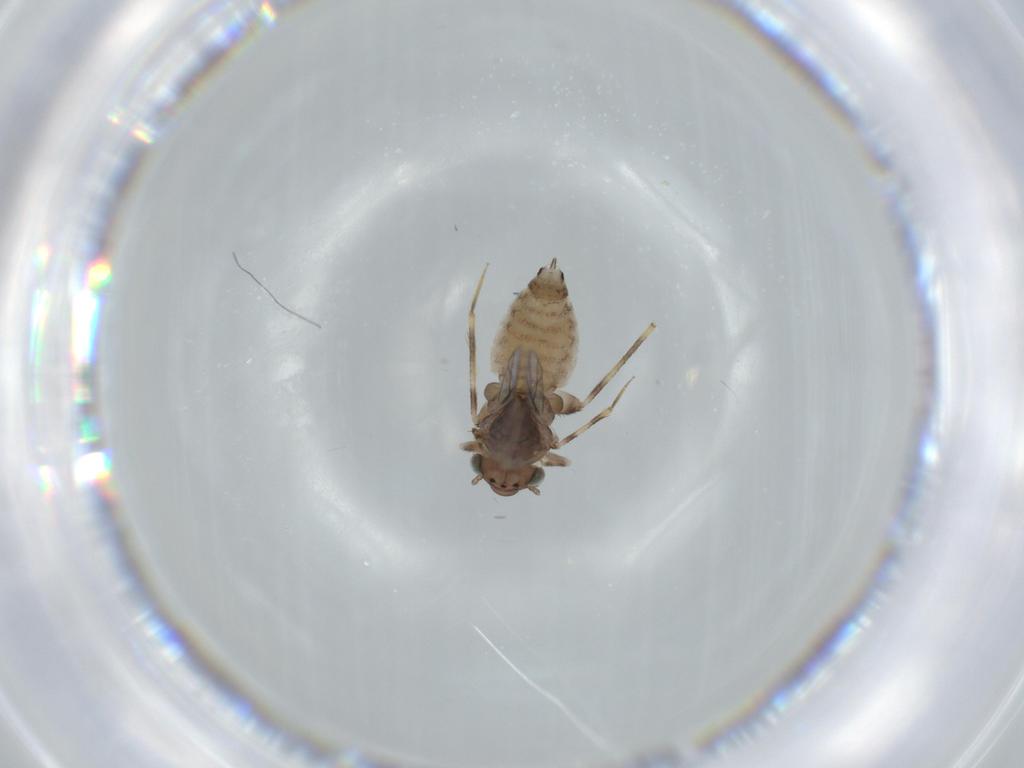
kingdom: Animalia
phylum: Arthropoda
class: Insecta
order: Psocodea
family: Lepidopsocidae
